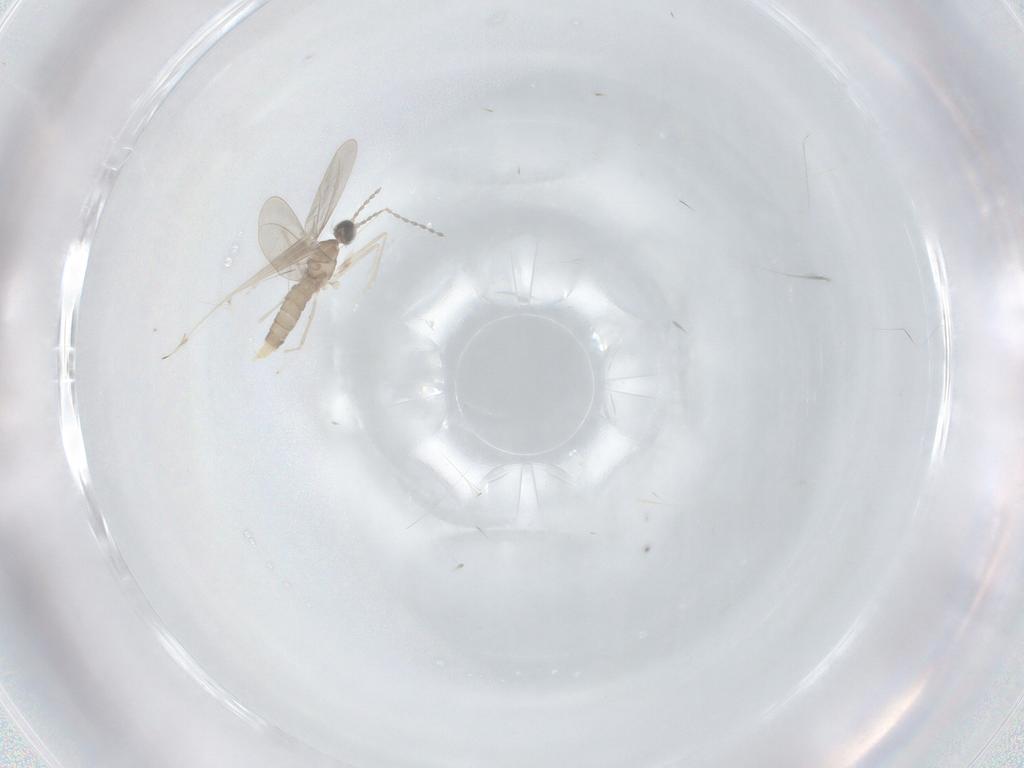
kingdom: Animalia
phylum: Arthropoda
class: Insecta
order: Diptera
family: Cecidomyiidae
